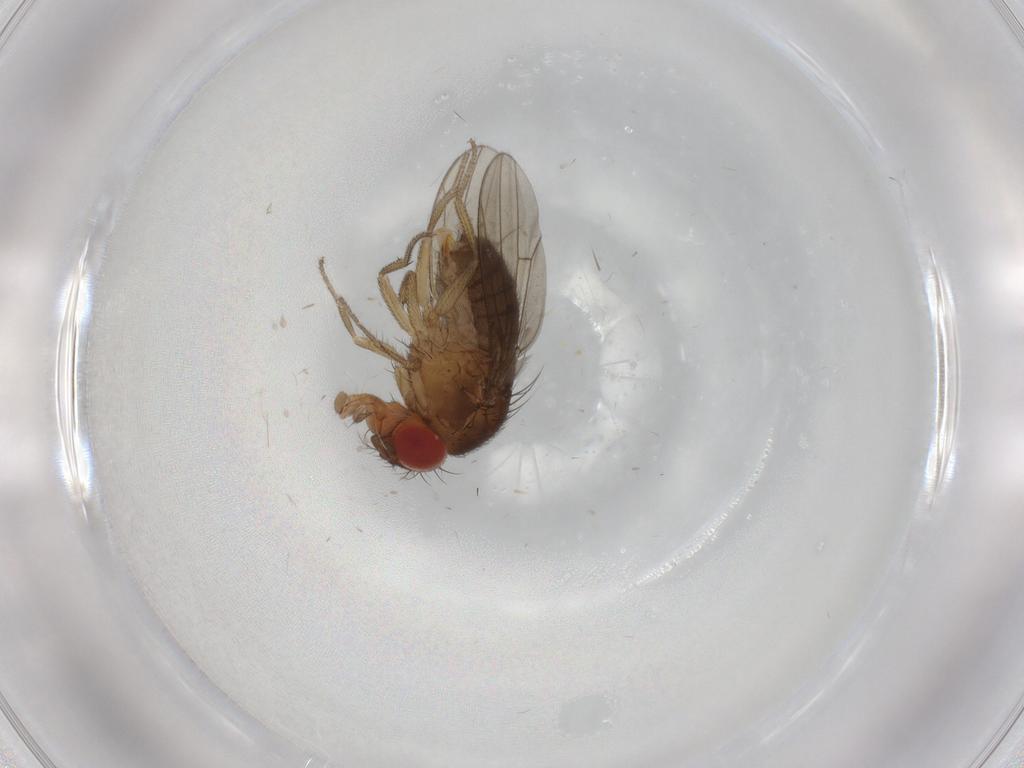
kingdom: Animalia
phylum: Arthropoda
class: Insecta
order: Diptera
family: Drosophilidae
